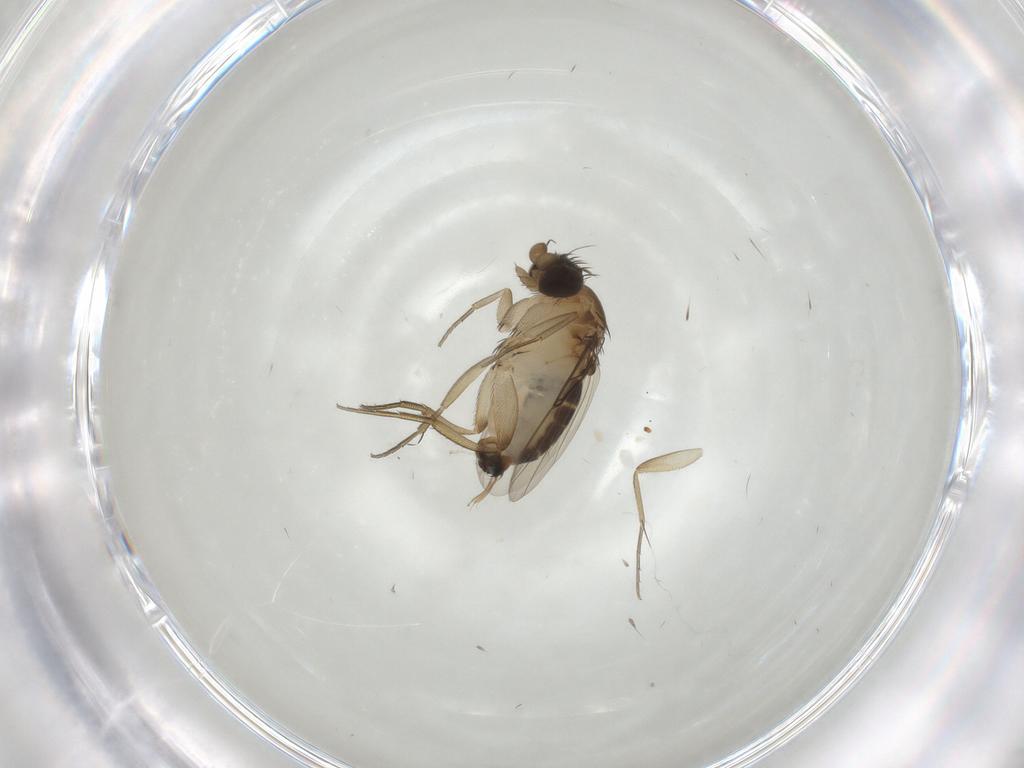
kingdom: Animalia
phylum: Arthropoda
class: Insecta
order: Diptera
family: Phoridae
